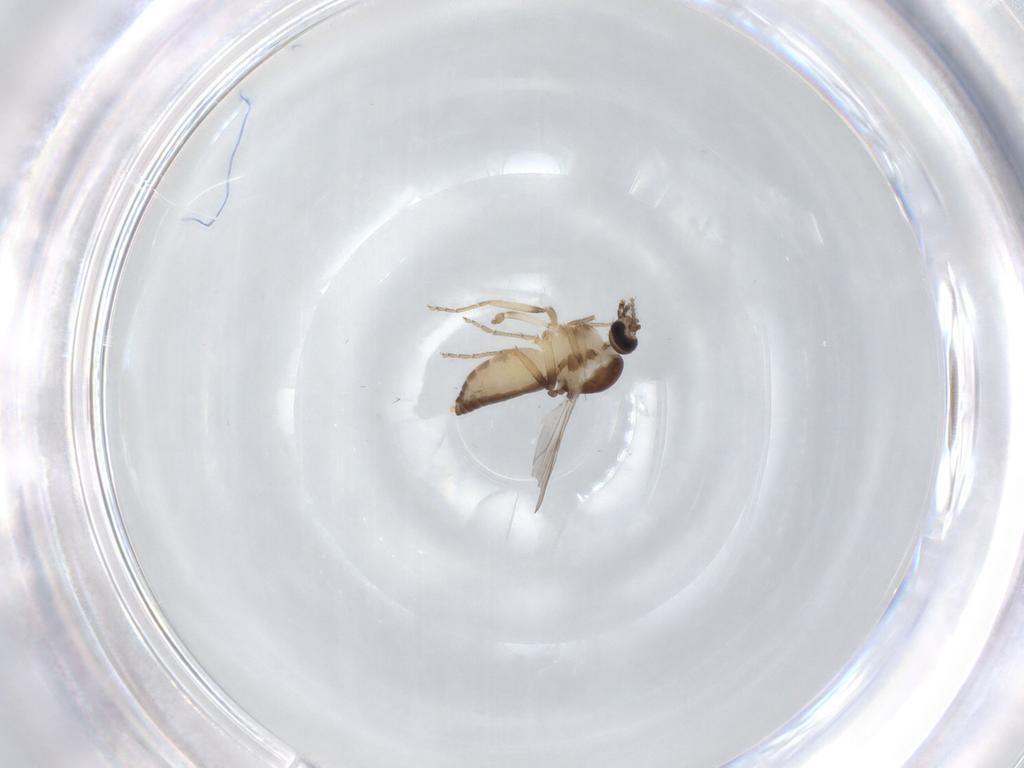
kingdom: Animalia
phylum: Arthropoda
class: Insecta
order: Diptera
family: Ceratopogonidae
